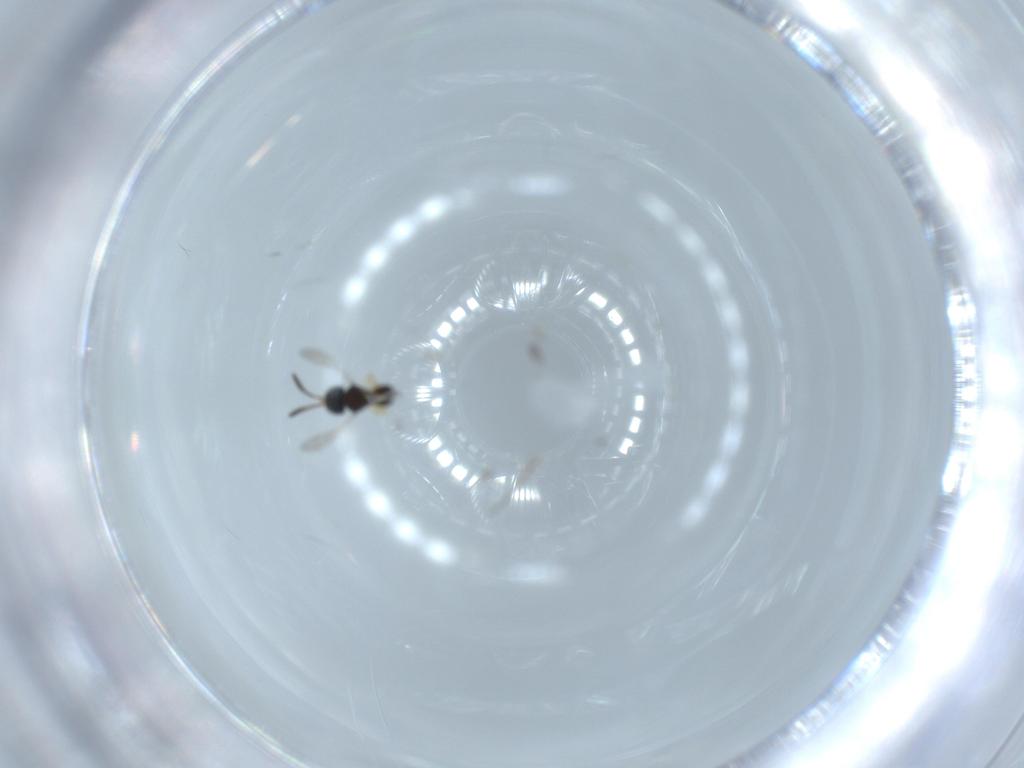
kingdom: Animalia
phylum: Arthropoda
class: Insecta
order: Hymenoptera
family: Scelionidae
